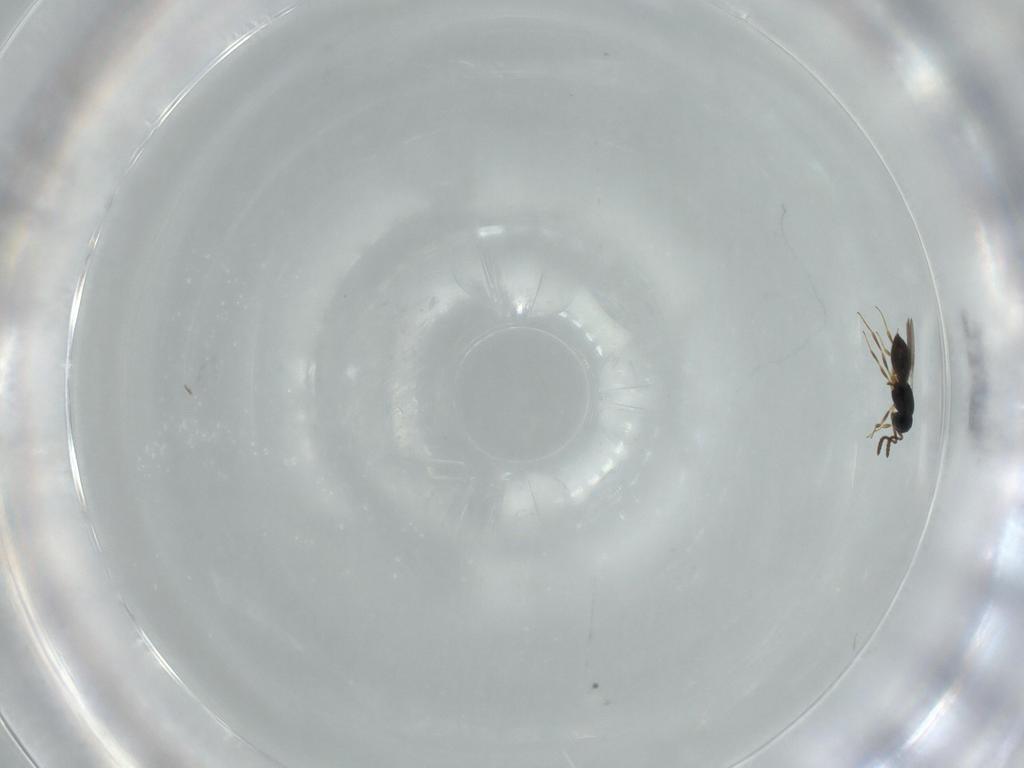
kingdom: Animalia
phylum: Arthropoda
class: Insecta
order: Hymenoptera
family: Scelionidae
